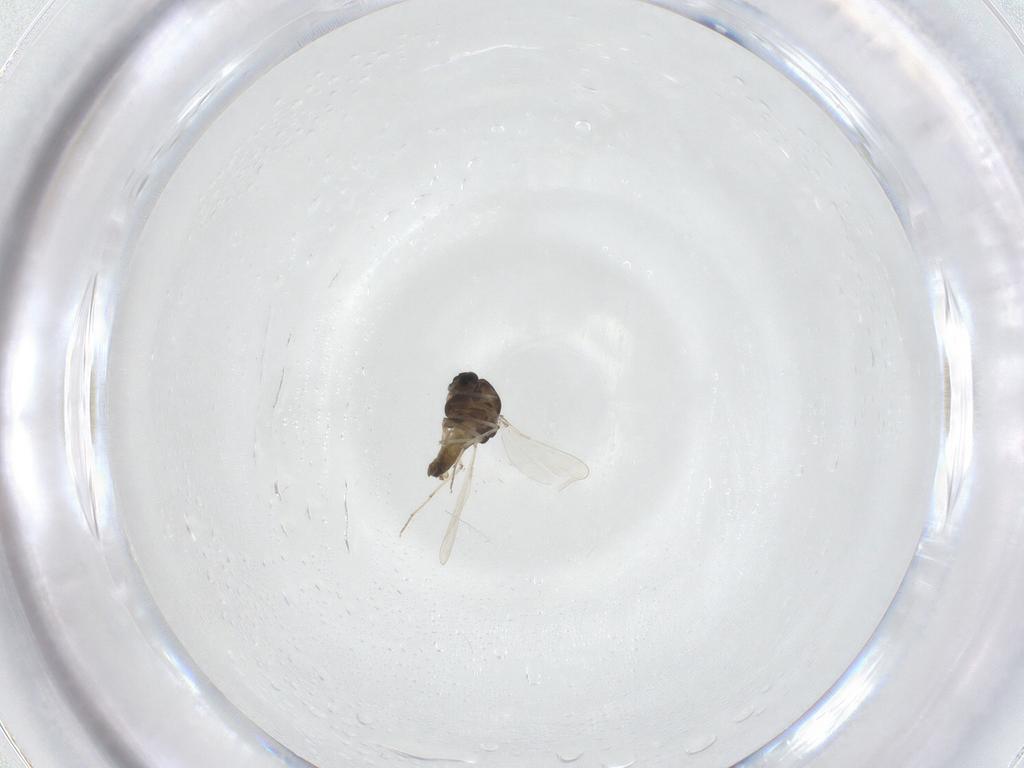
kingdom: Animalia
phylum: Arthropoda
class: Insecta
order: Diptera
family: Chironomidae
